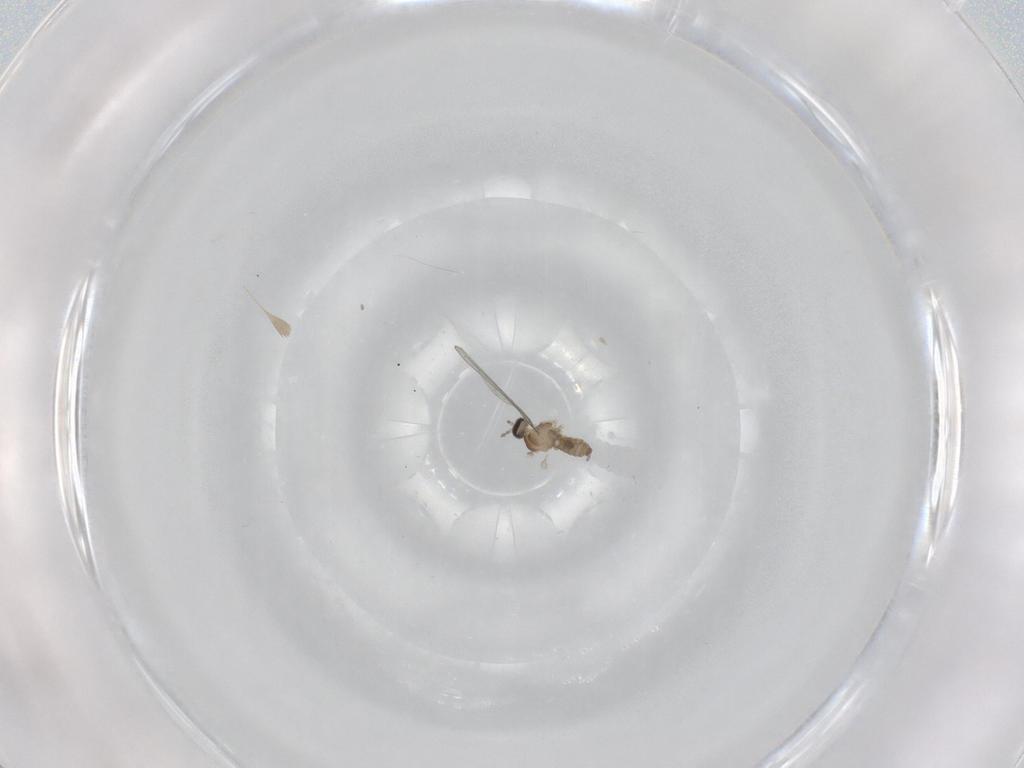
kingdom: Animalia
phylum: Arthropoda
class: Insecta
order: Diptera
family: Cecidomyiidae
